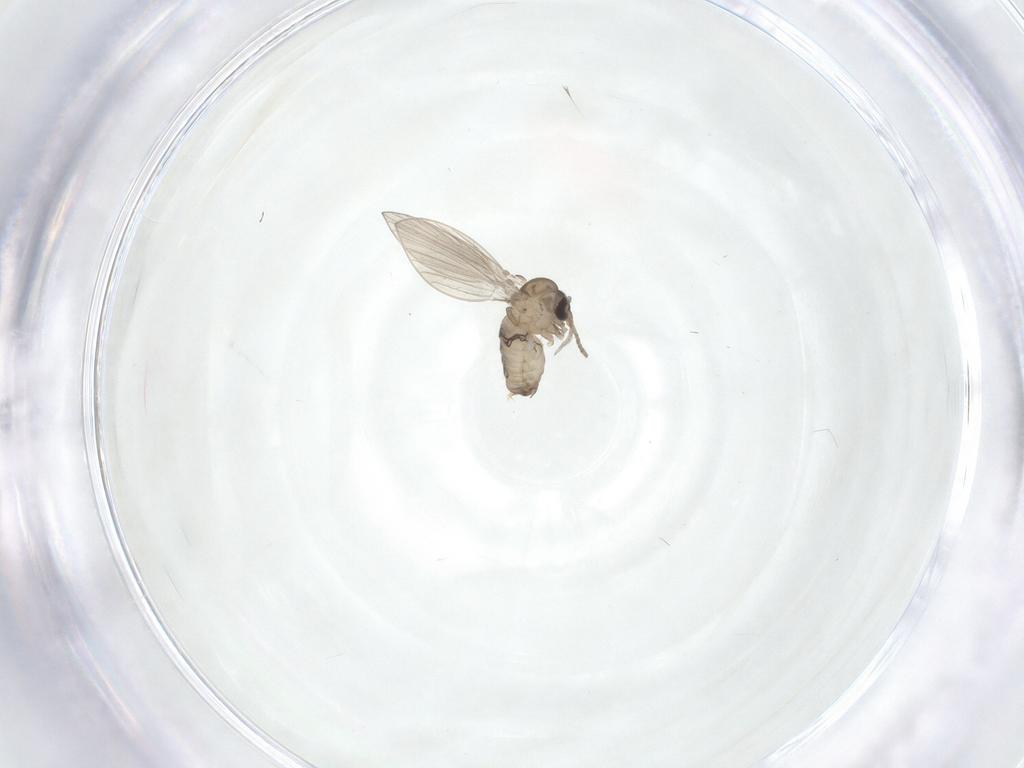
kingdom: Animalia
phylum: Arthropoda
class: Insecta
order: Diptera
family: Psychodidae
